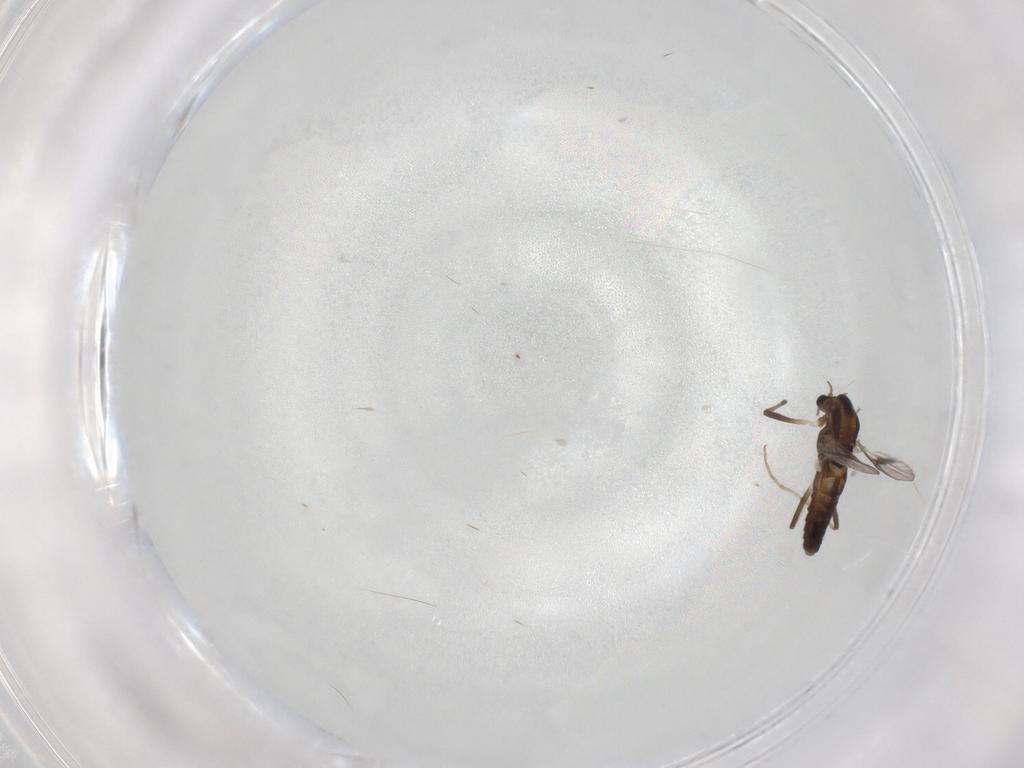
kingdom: Animalia
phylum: Arthropoda
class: Insecta
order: Diptera
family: Chironomidae
